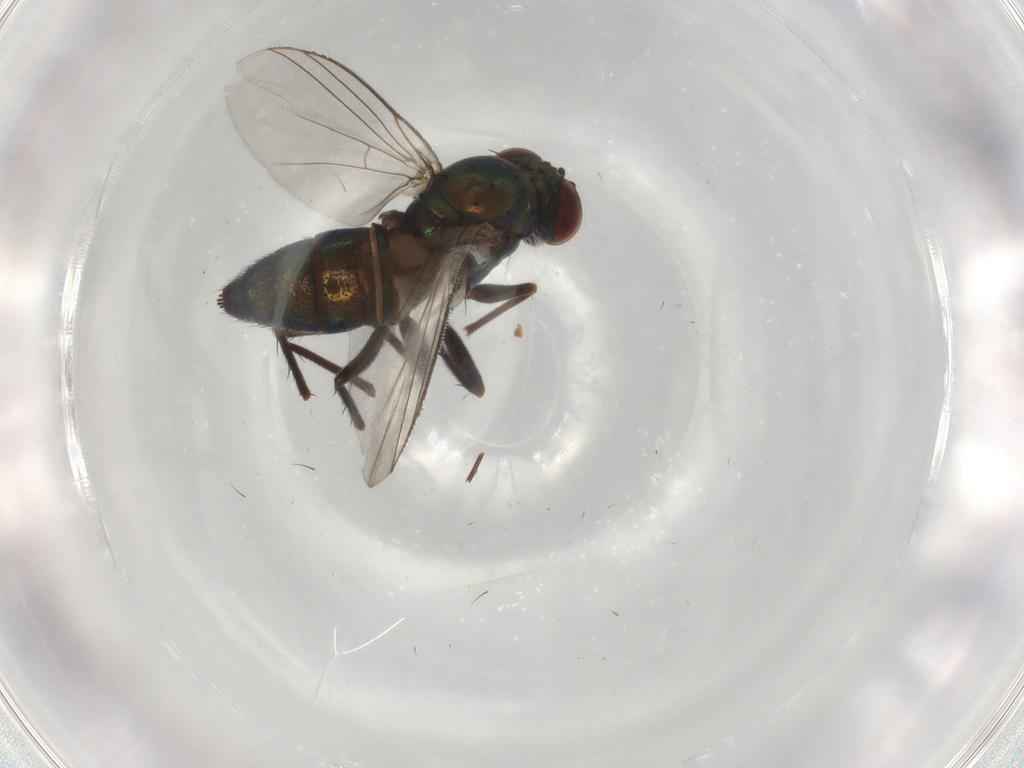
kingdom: Animalia
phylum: Arthropoda
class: Insecta
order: Diptera
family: Dolichopodidae
